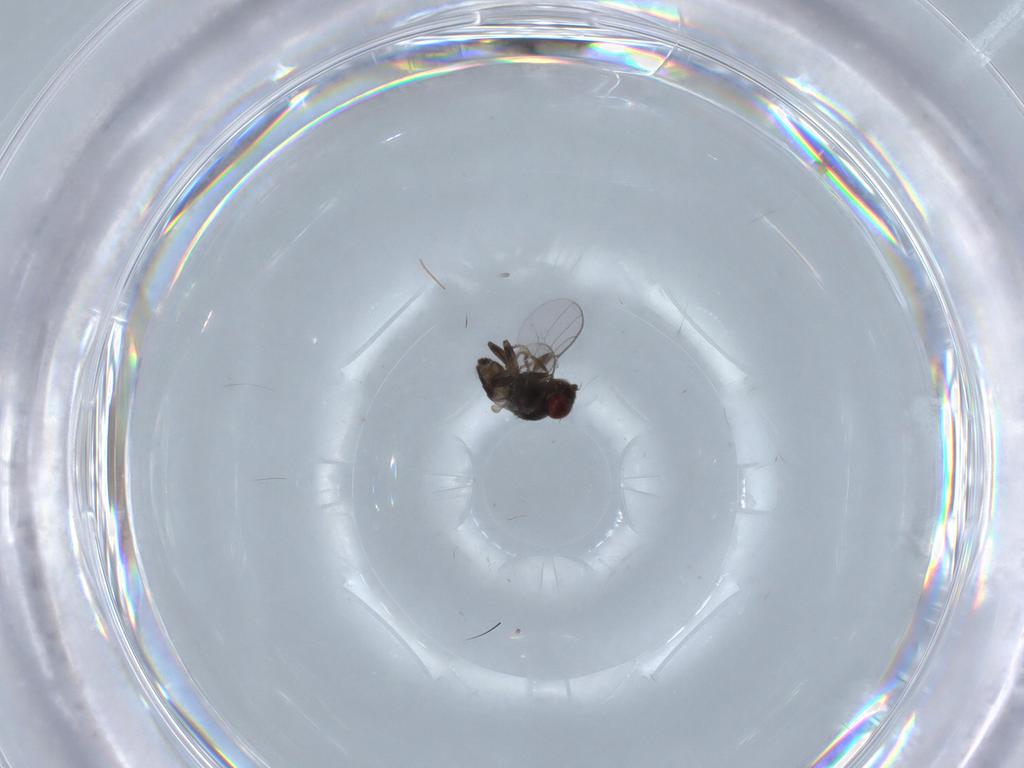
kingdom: Animalia
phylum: Arthropoda
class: Insecta
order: Diptera
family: Chloropidae
